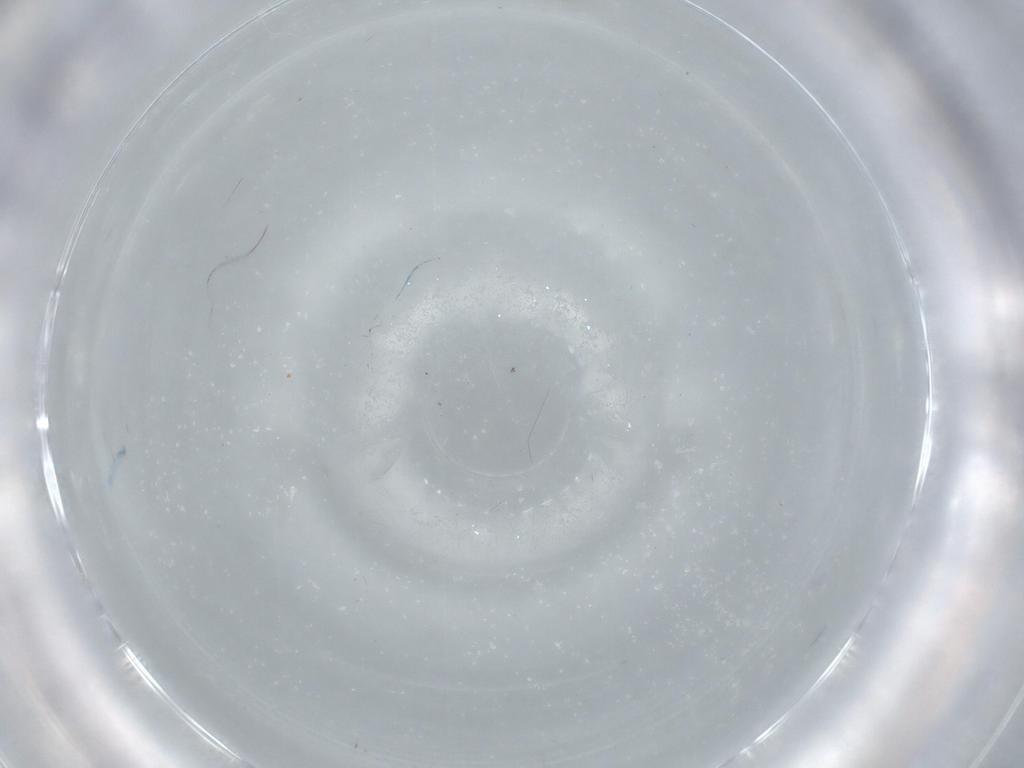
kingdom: Animalia
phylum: Arthropoda
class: Insecta
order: Diptera
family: Cecidomyiidae
